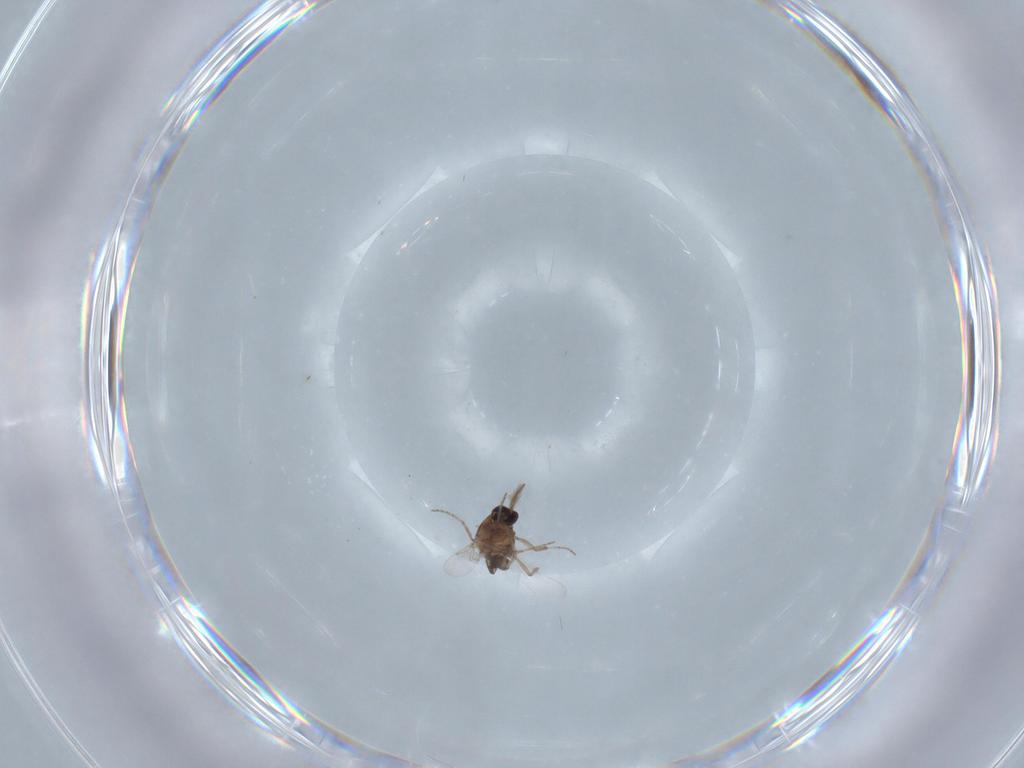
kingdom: Animalia
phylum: Arthropoda
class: Insecta
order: Diptera
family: Ceratopogonidae
